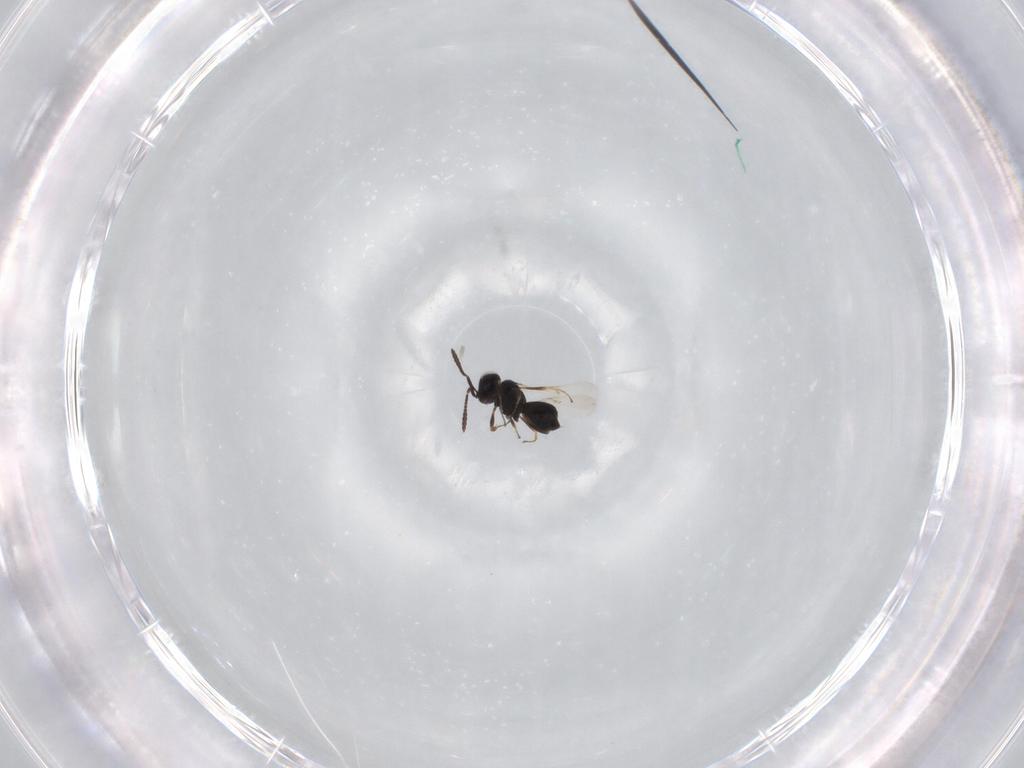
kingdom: Animalia
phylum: Arthropoda
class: Insecta
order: Hymenoptera
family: Scelionidae
